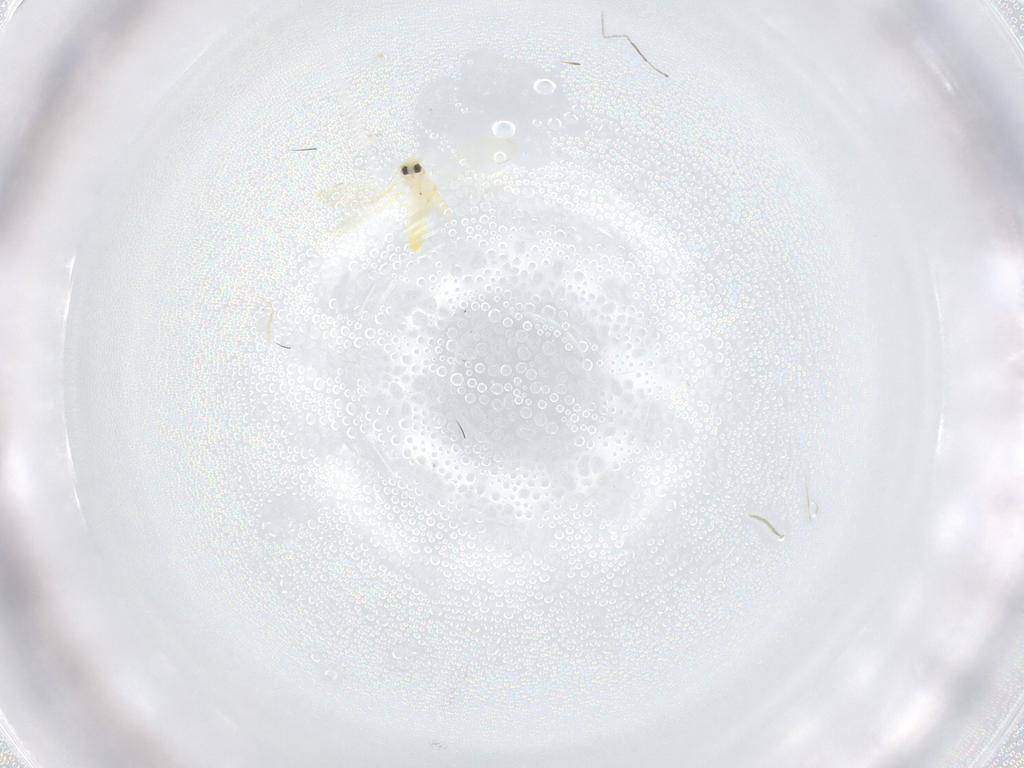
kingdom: Animalia
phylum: Arthropoda
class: Insecta
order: Hemiptera
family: Aleyrodidae
